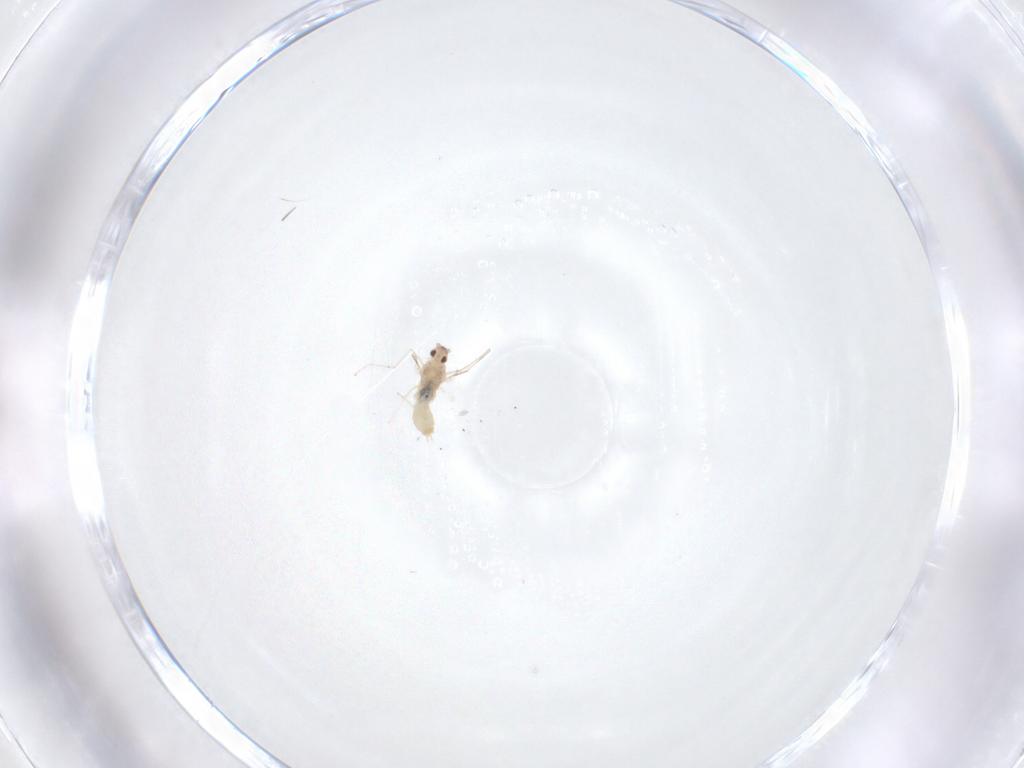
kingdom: Animalia
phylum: Arthropoda
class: Insecta
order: Diptera
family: Cecidomyiidae
